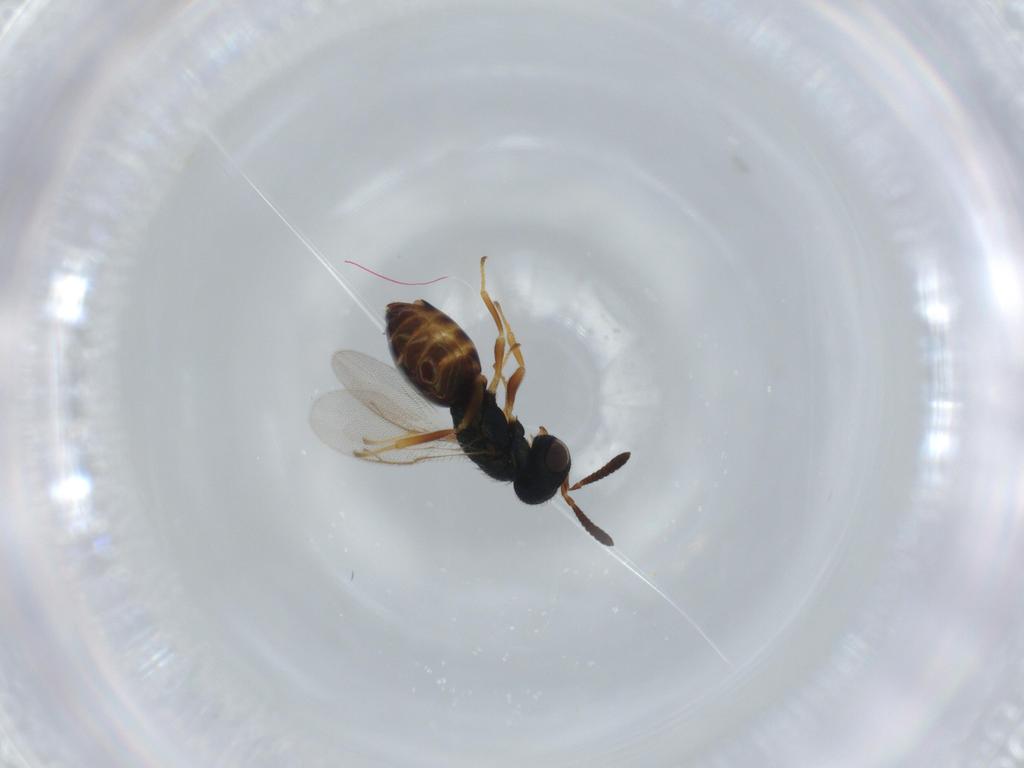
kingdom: Animalia
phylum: Arthropoda
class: Insecta
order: Hymenoptera
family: Pteromalidae
